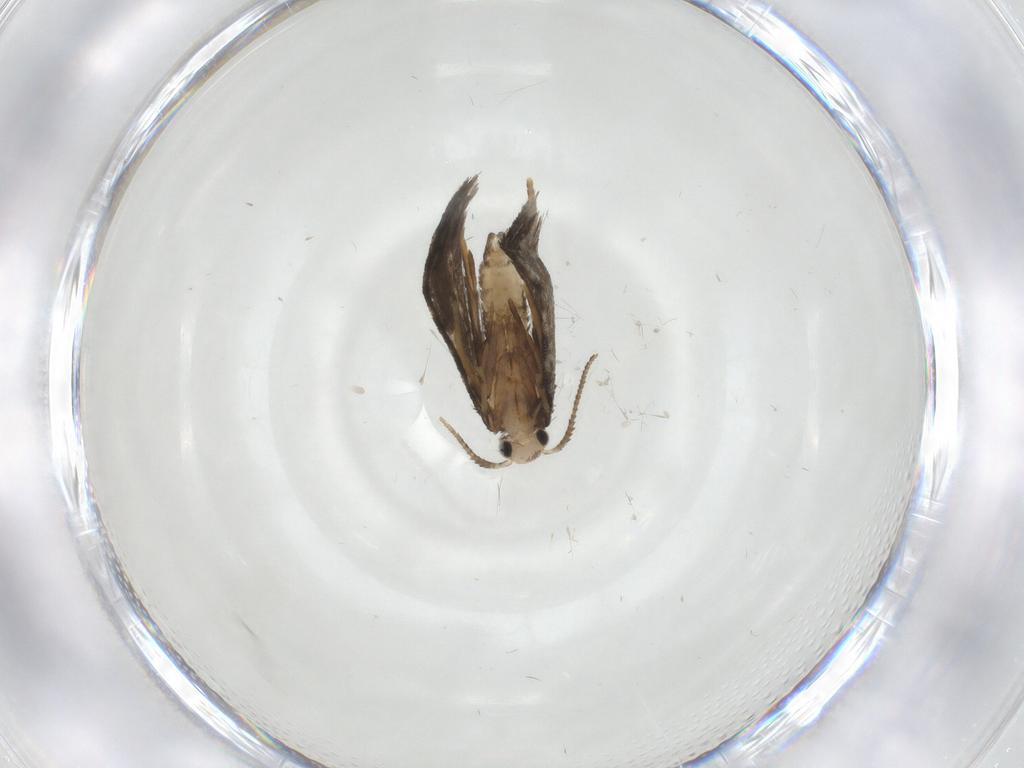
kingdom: Animalia
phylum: Arthropoda
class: Insecta
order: Lepidoptera
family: Psychidae
